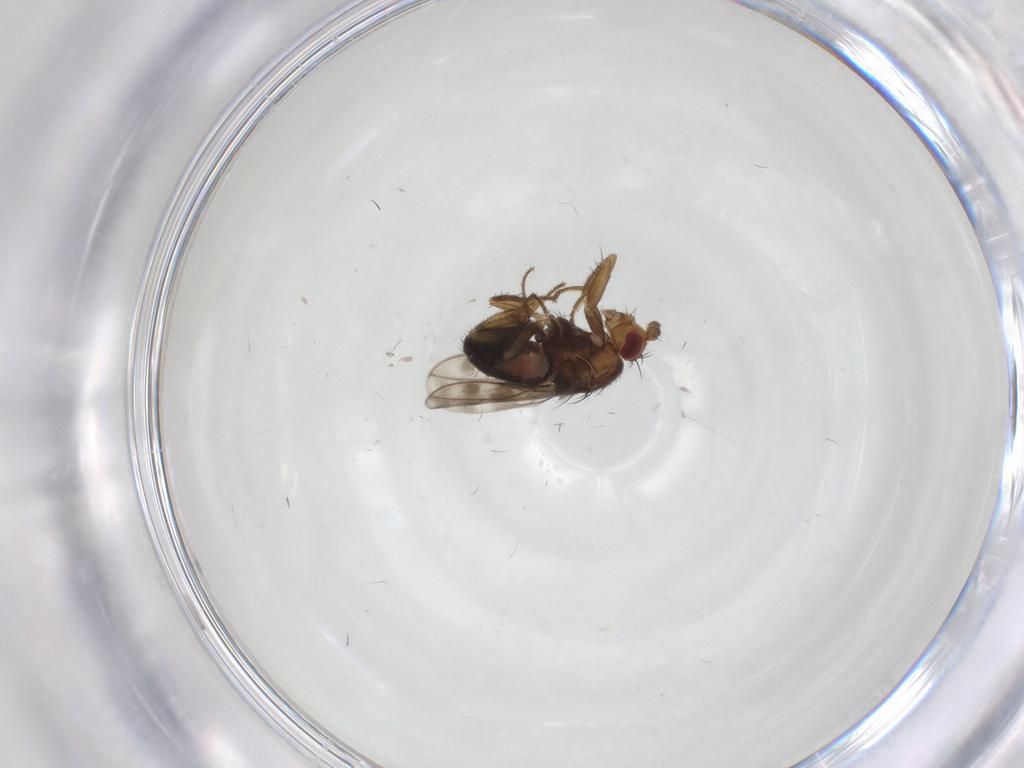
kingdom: Animalia
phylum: Arthropoda
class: Insecta
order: Diptera
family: Sphaeroceridae
